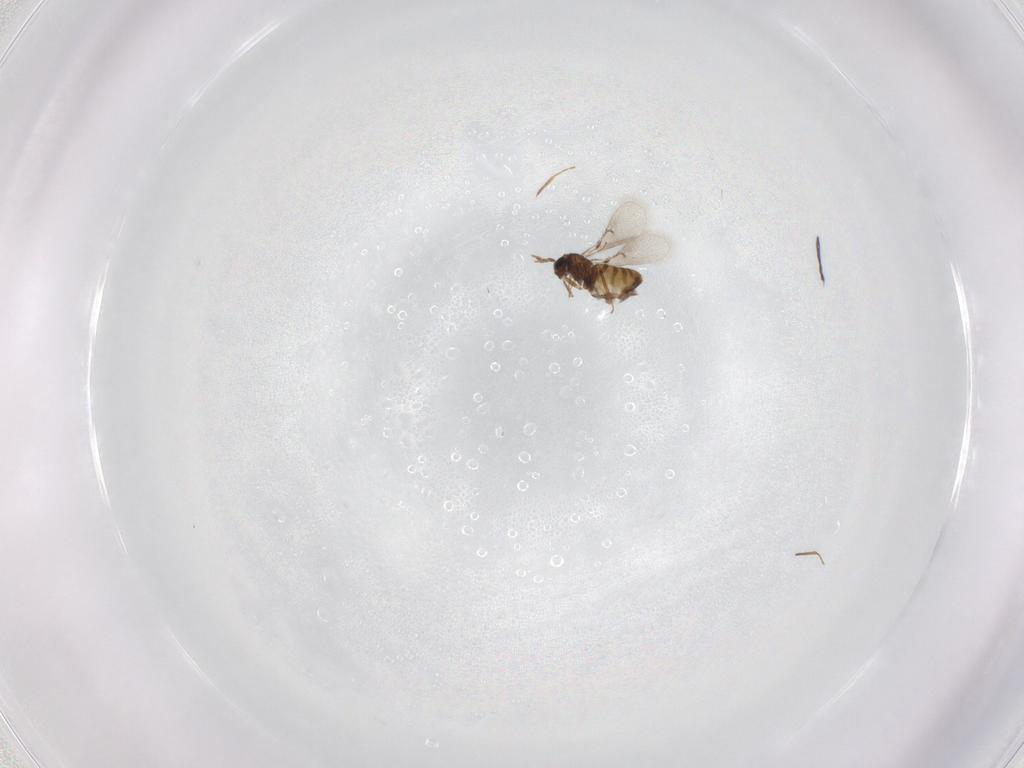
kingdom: Animalia
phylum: Arthropoda
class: Insecta
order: Hymenoptera
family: Trichogrammatidae
